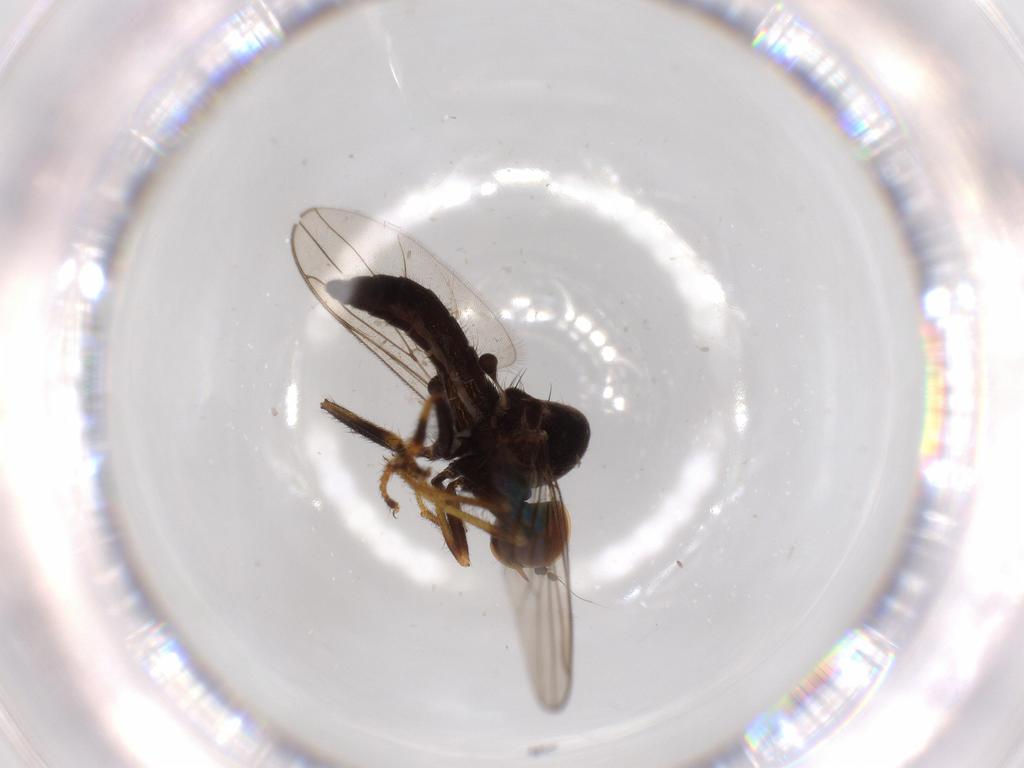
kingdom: Animalia
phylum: Arthropoda
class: Insecta
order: Diptera
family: Hybotidae
